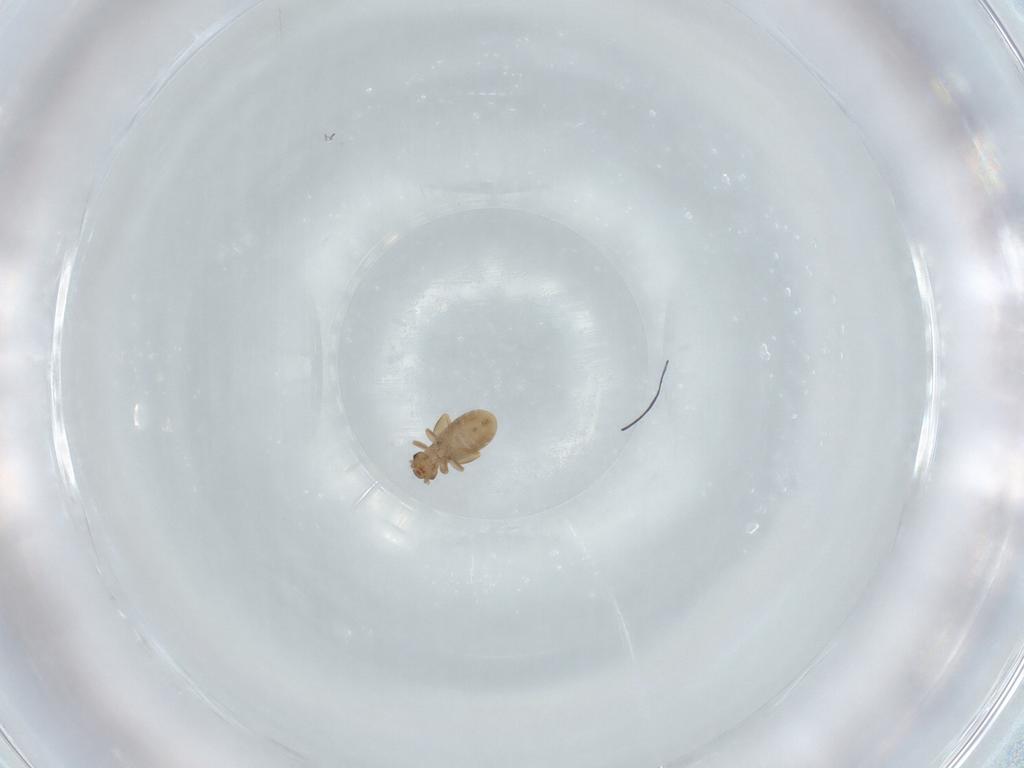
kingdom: Animalia
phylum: Arthropoda
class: Insecta
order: Psocodea
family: Liposcelididae
